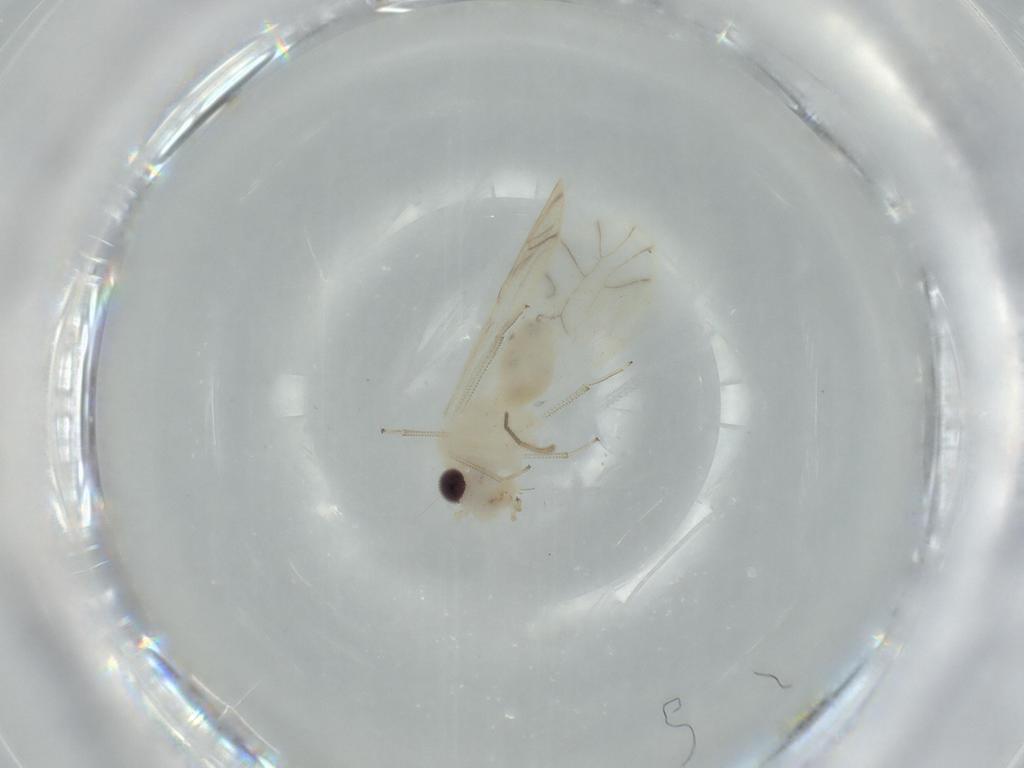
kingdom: Animalia
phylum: Arthropoda
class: Insecta
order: Psocodea
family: Caeciliusidae
